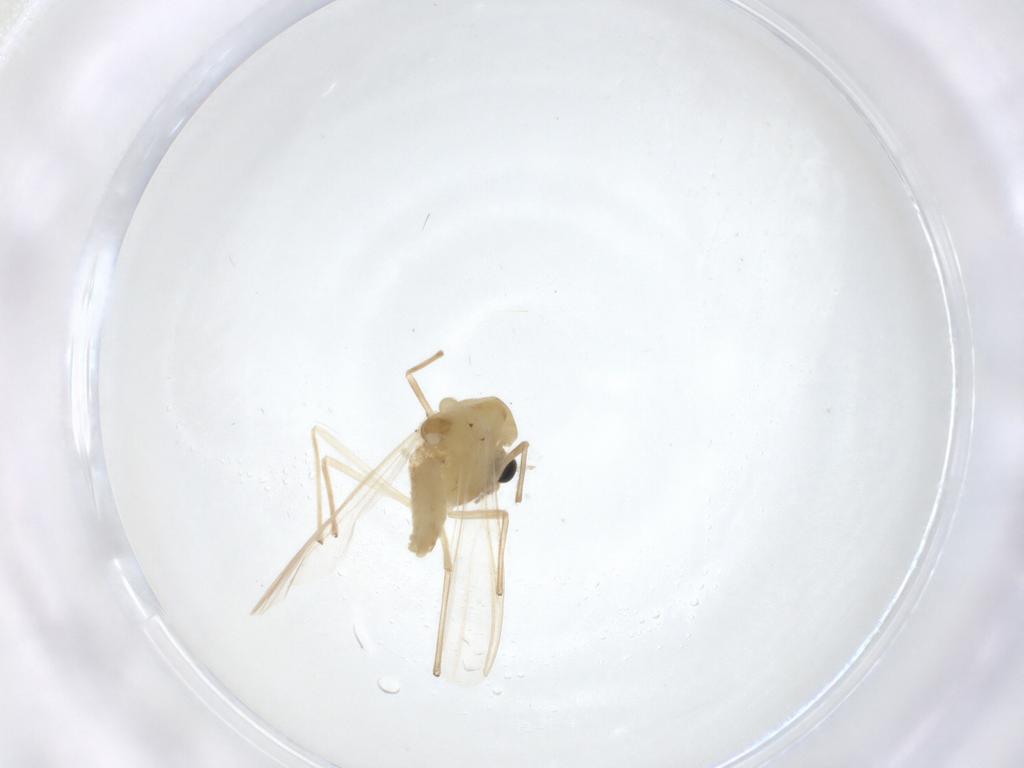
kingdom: Animalia
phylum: Arthropoda
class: Insecta
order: Diptera
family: Chironomidae
